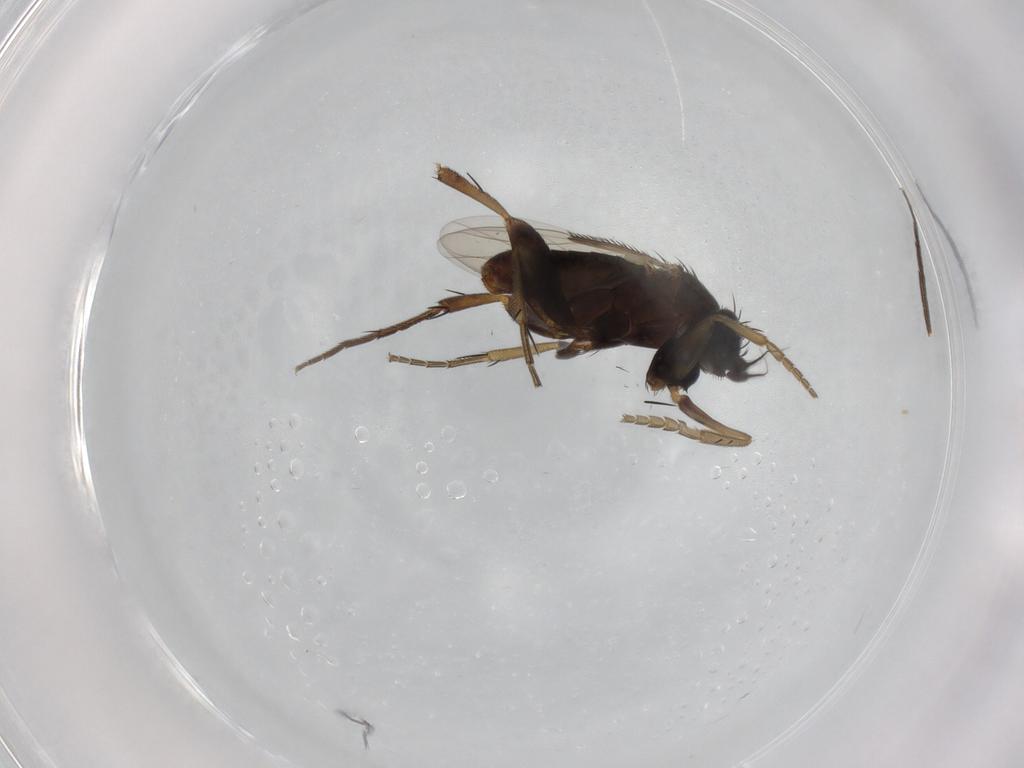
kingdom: Animalia
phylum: Arthropoda
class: Insecta
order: Diptera
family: Phoridae
